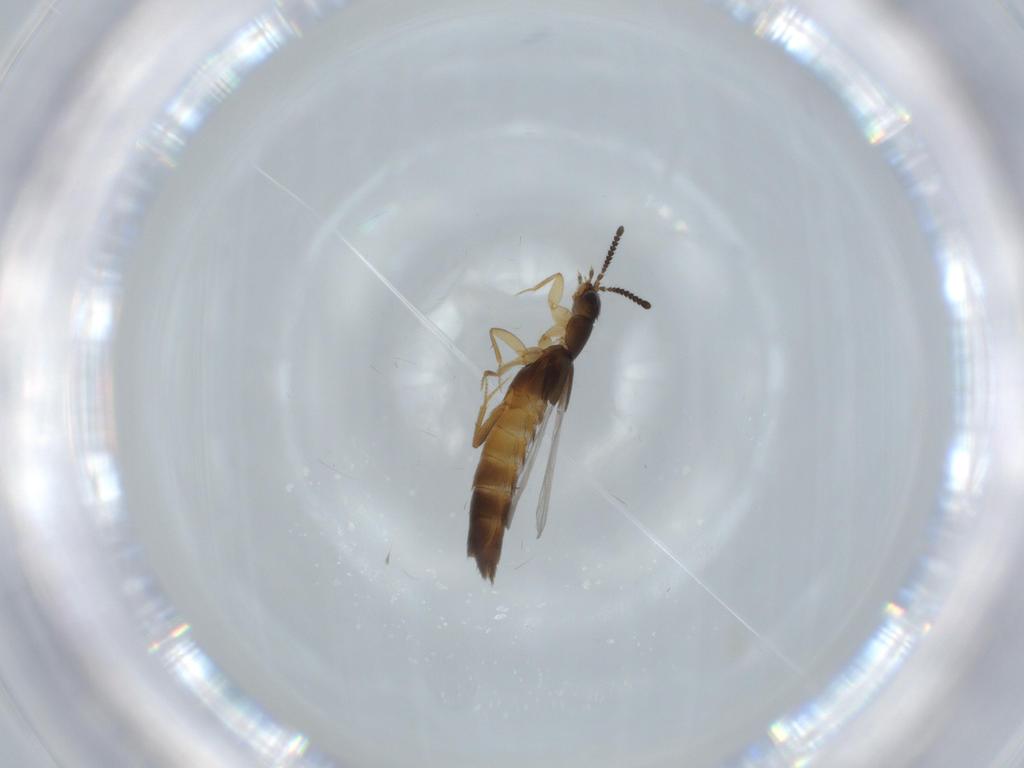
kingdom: Animalia
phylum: Arthropoda
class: Insecta
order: Coleoptera
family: Staphylinidae
